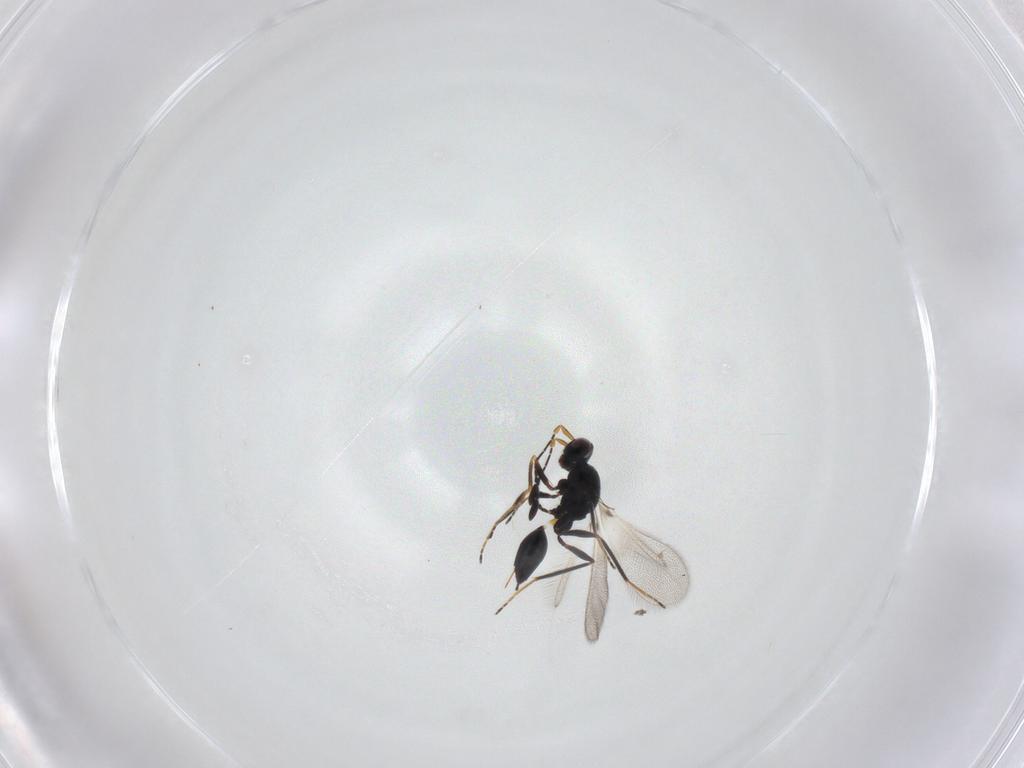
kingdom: Animalia
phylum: Arthropoda
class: Insecta
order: Hymenoptera
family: Mymaridae
